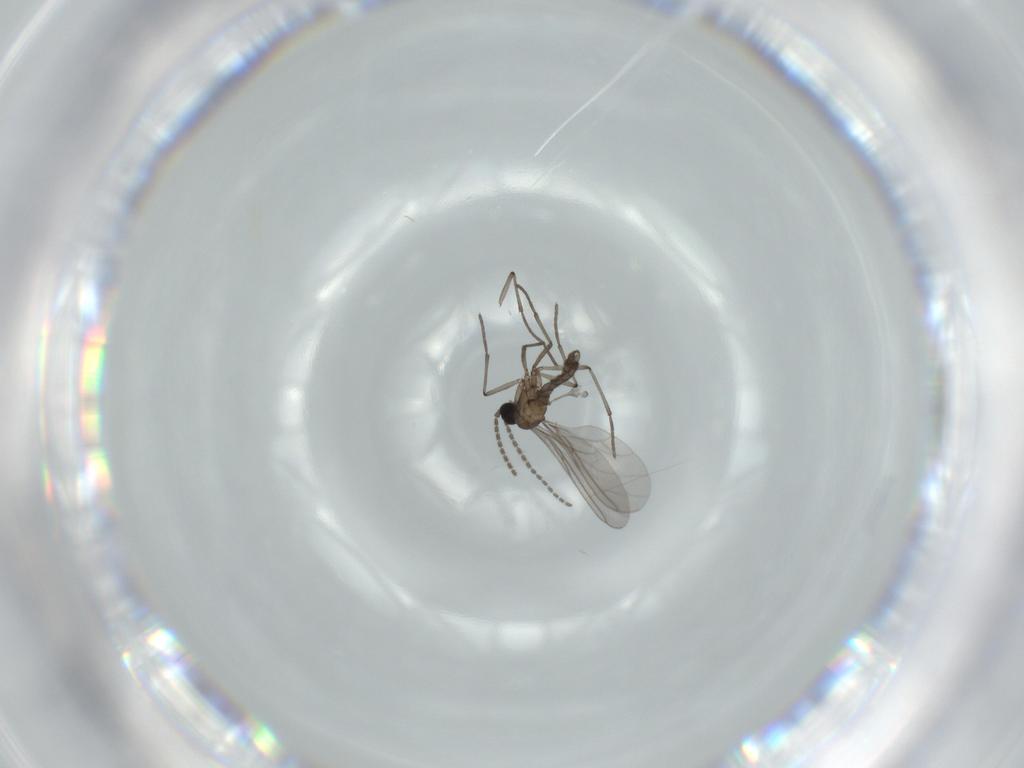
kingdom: Animalia
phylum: Arthropoda
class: Insecta
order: Diptera
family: Sciaridae
